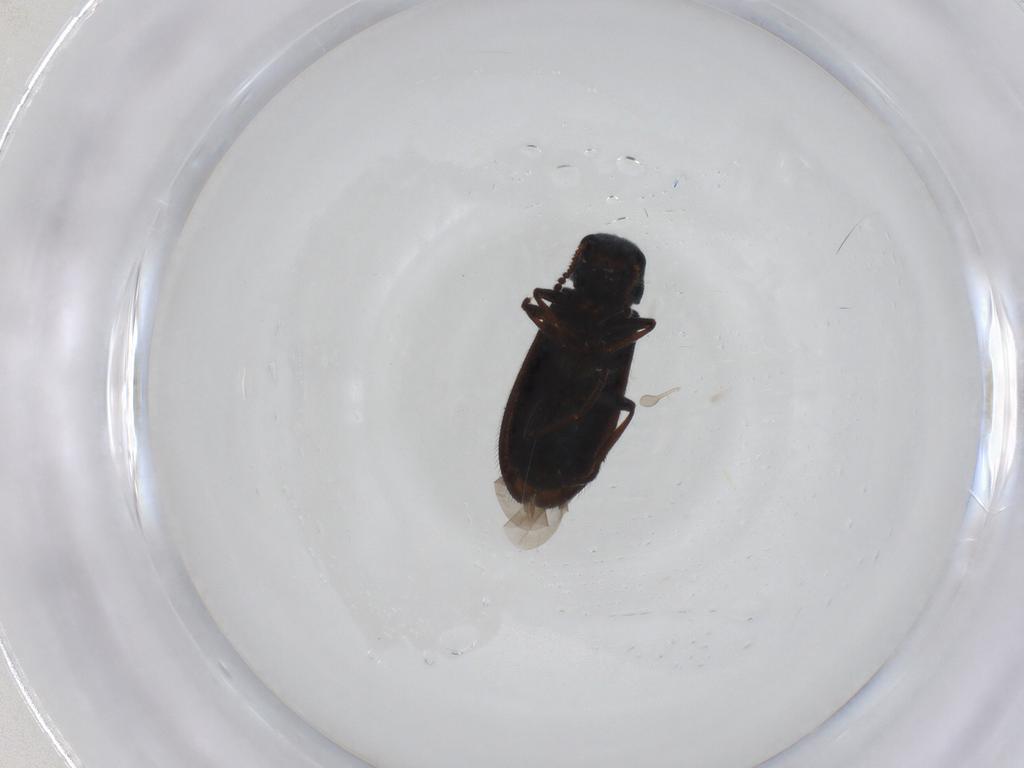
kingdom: Animalia
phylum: Arthropoda
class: Insecta
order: Coleoptera
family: Melyridae
